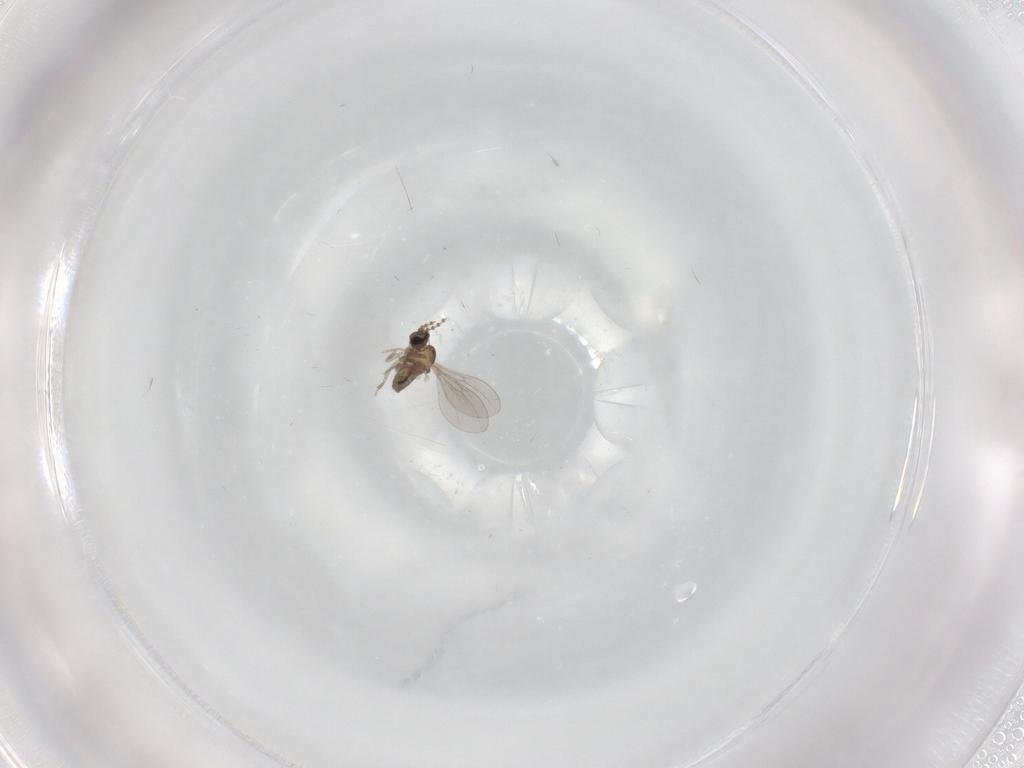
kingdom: Animalia
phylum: Arthropoda
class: Insecta
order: Diptera
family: Cecidomyiidae
